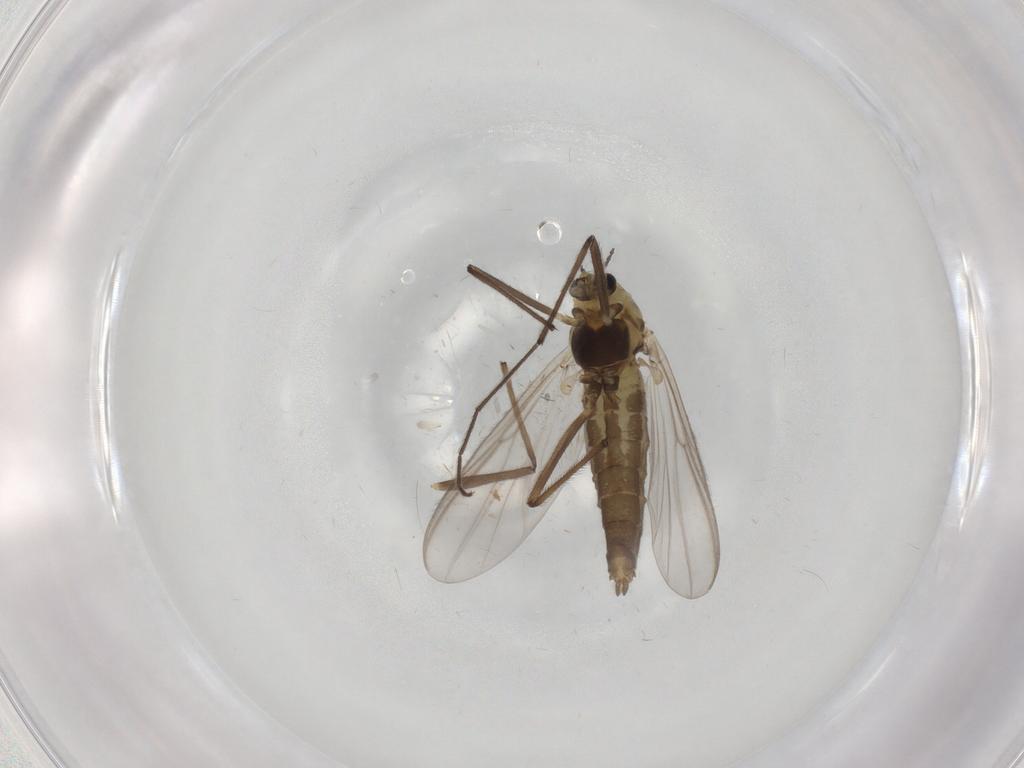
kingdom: Animalia
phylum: Arthropoda
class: Insecta
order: Diptera
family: Chironomidae
